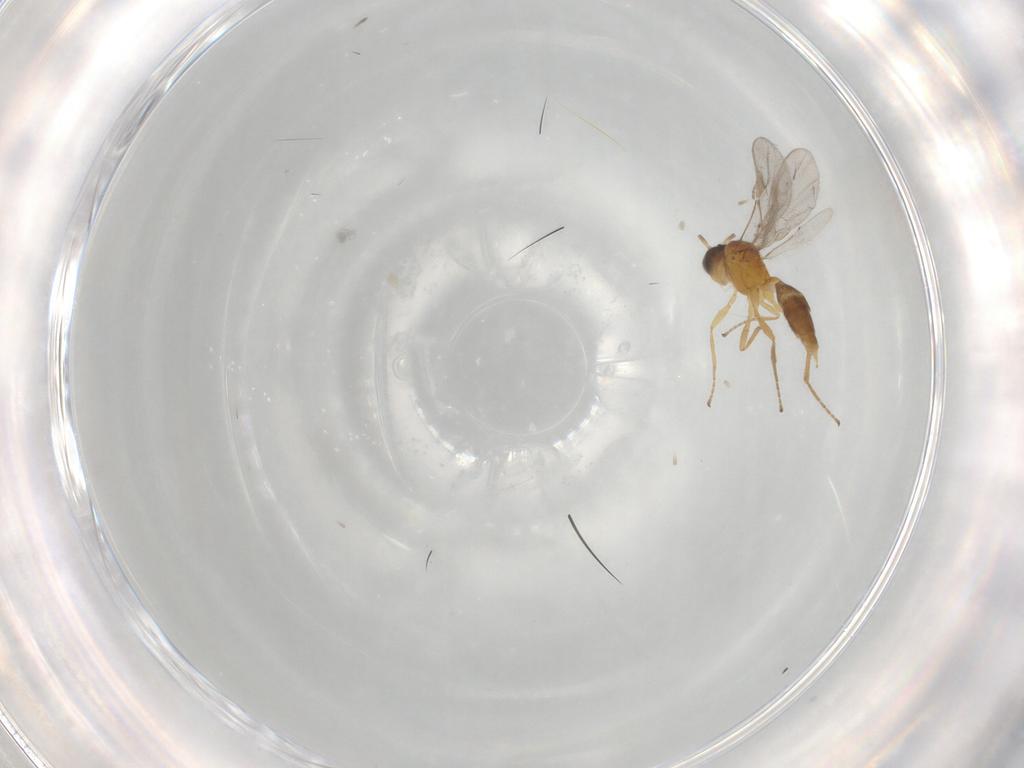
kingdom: Animalia
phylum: Arthropoda
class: Insecta
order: Hymenoptera
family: Braconidae
